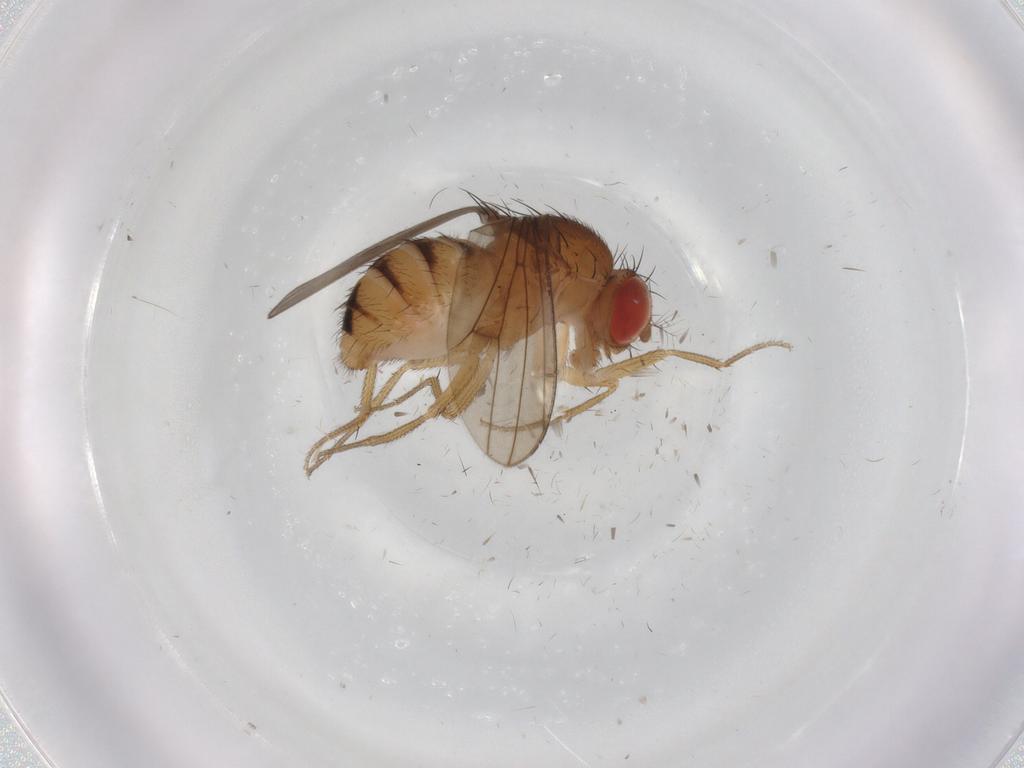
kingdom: Animalia
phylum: Arthropoda
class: Insecta
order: Diptera
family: Drosophilidae
